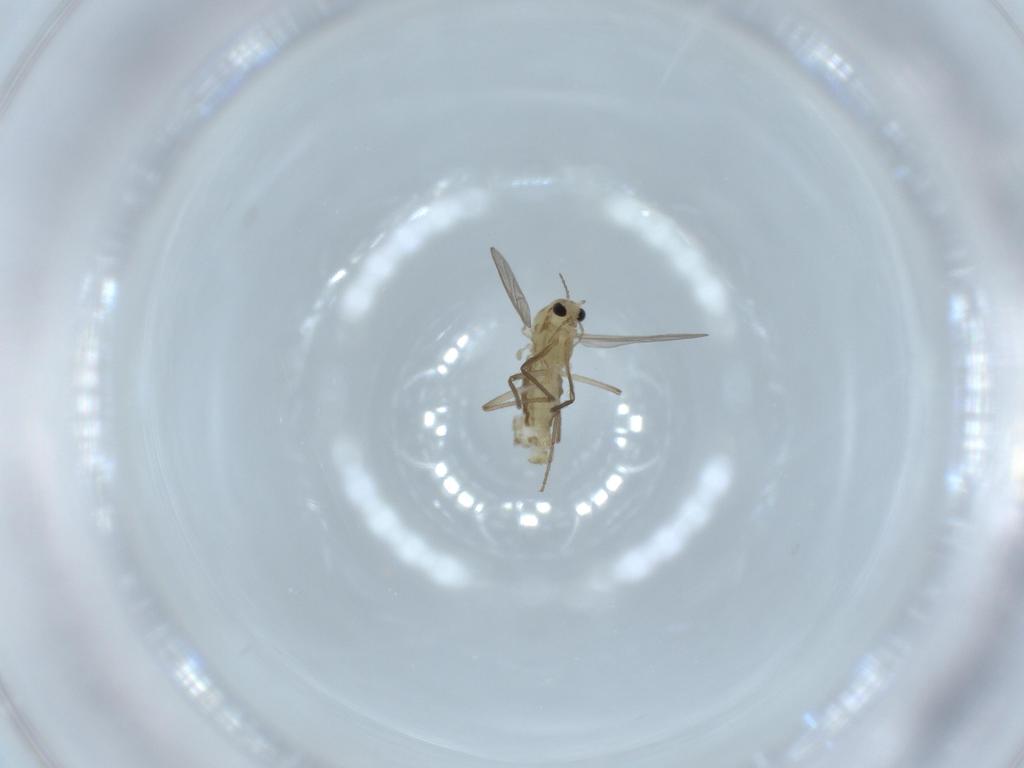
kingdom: Animalia
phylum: Arthropoda
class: Insecta
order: Diptera
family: Chironomidae
